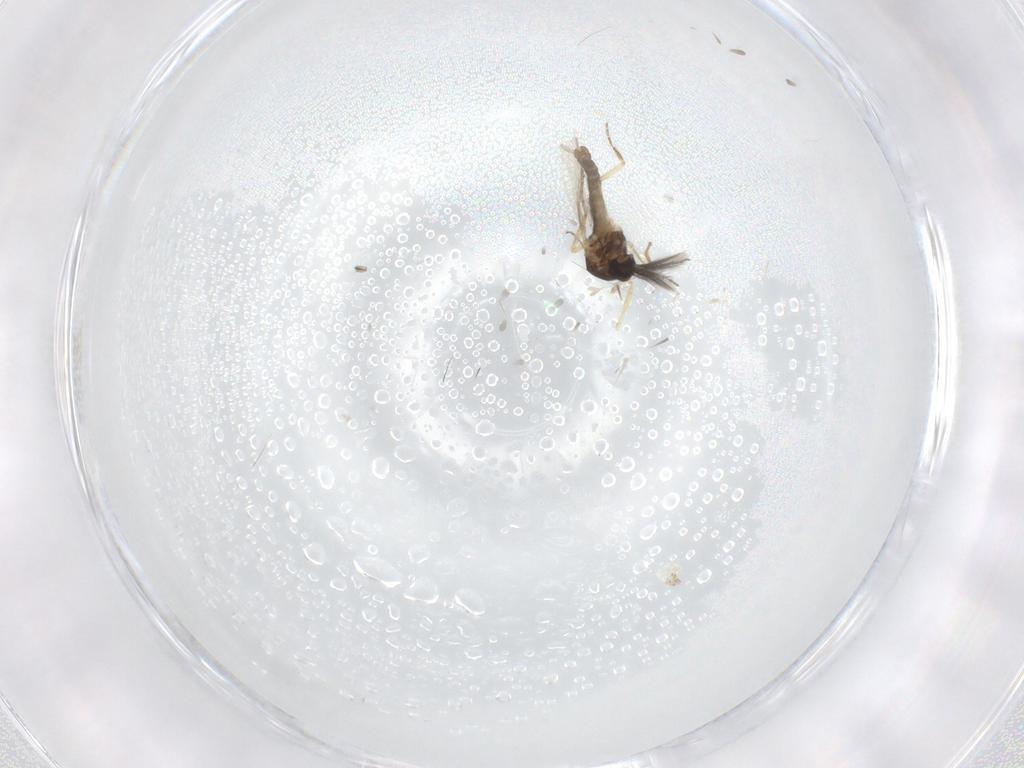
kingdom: Animalia
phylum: Arthropoda
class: Insecta
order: Diptera
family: Ceratopogonidae
